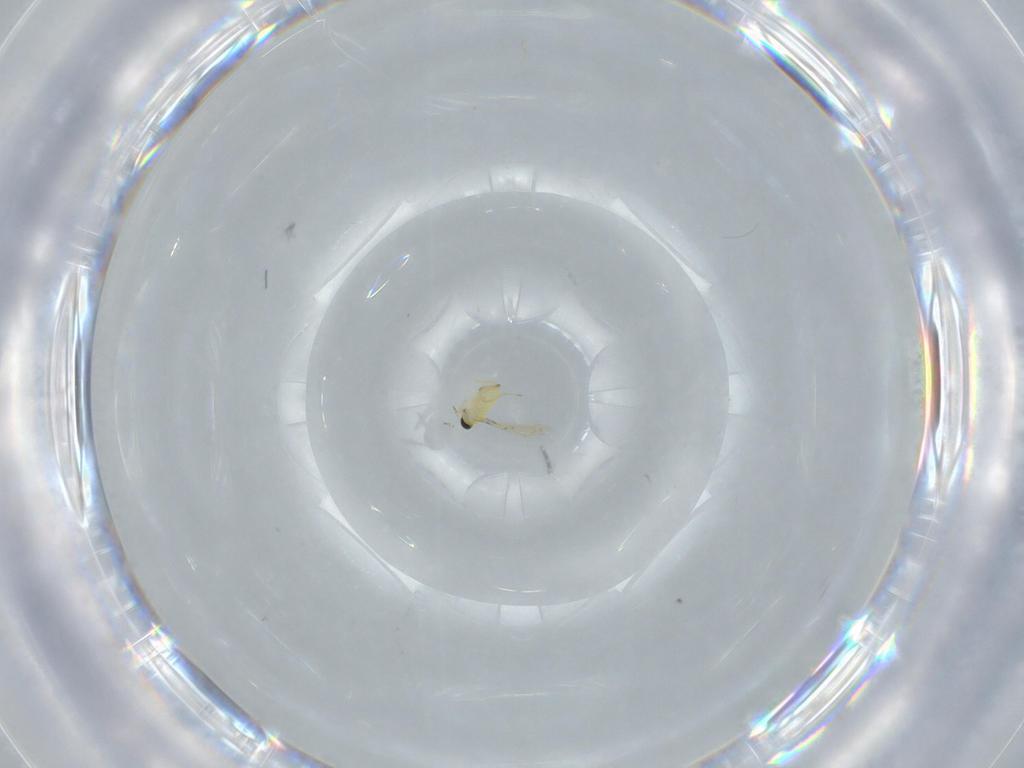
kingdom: Animalia
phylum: Arthropoda
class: Insecta
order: Hymenoptera
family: Trichogrammatidae
